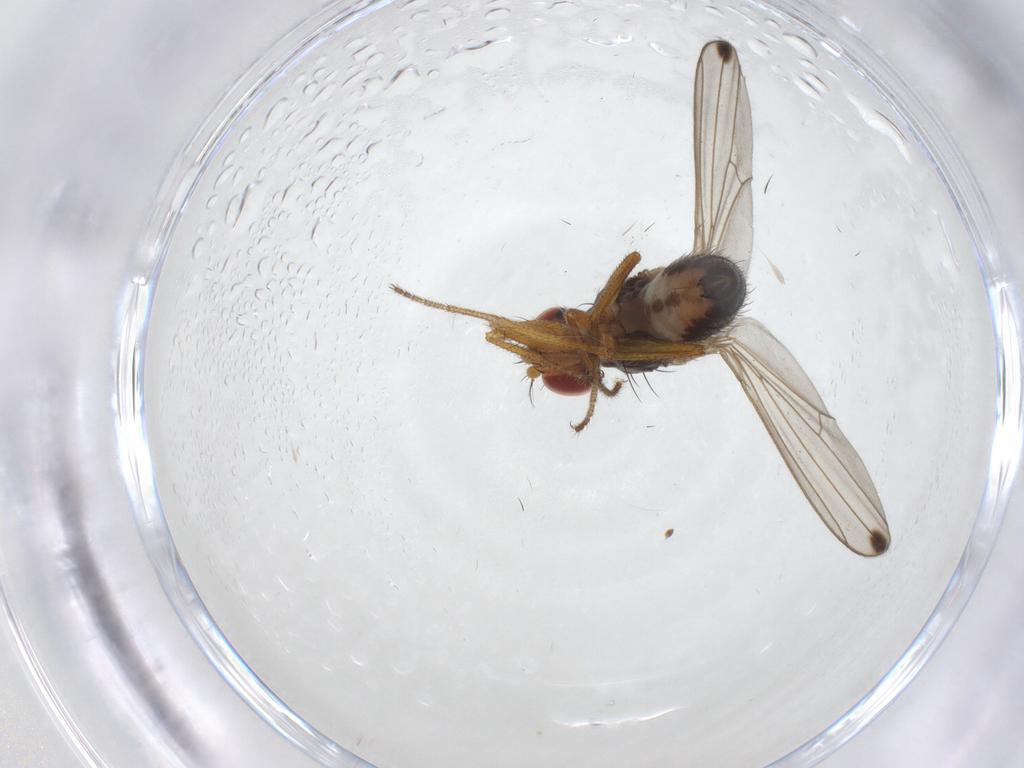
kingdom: Animalia
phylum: Arthropoda
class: Insecta
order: Diptera
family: Drosophilidae
